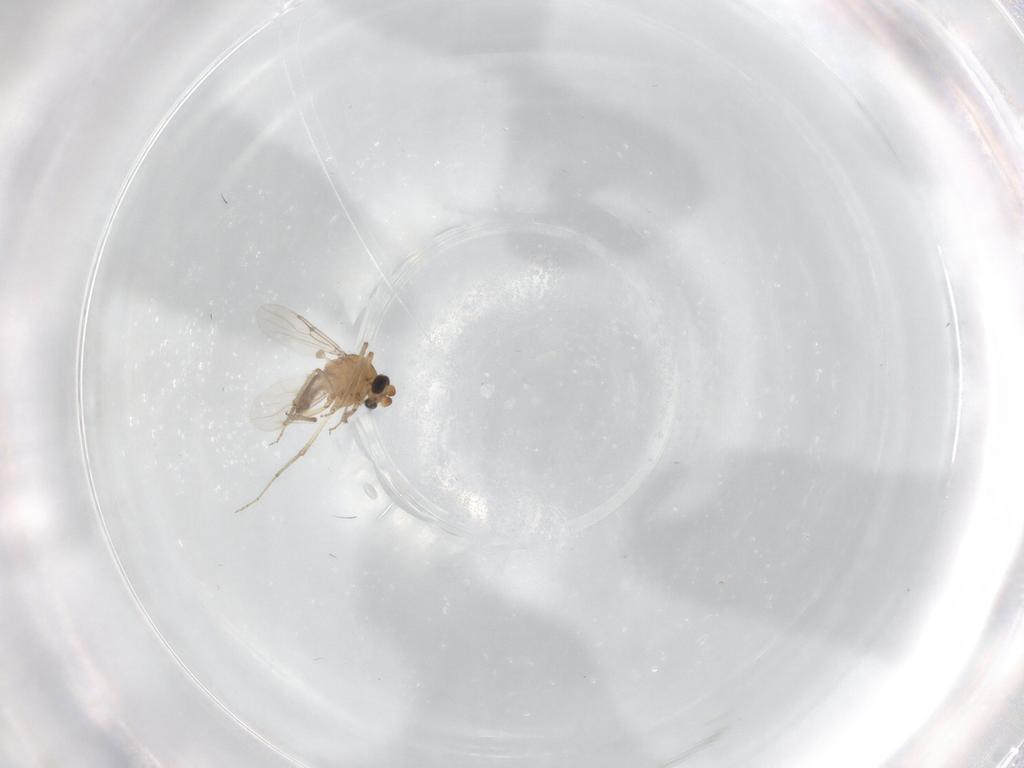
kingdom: Animalia
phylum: Arthropoda
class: Insecta
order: Diptera
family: Ceratopogonidae
